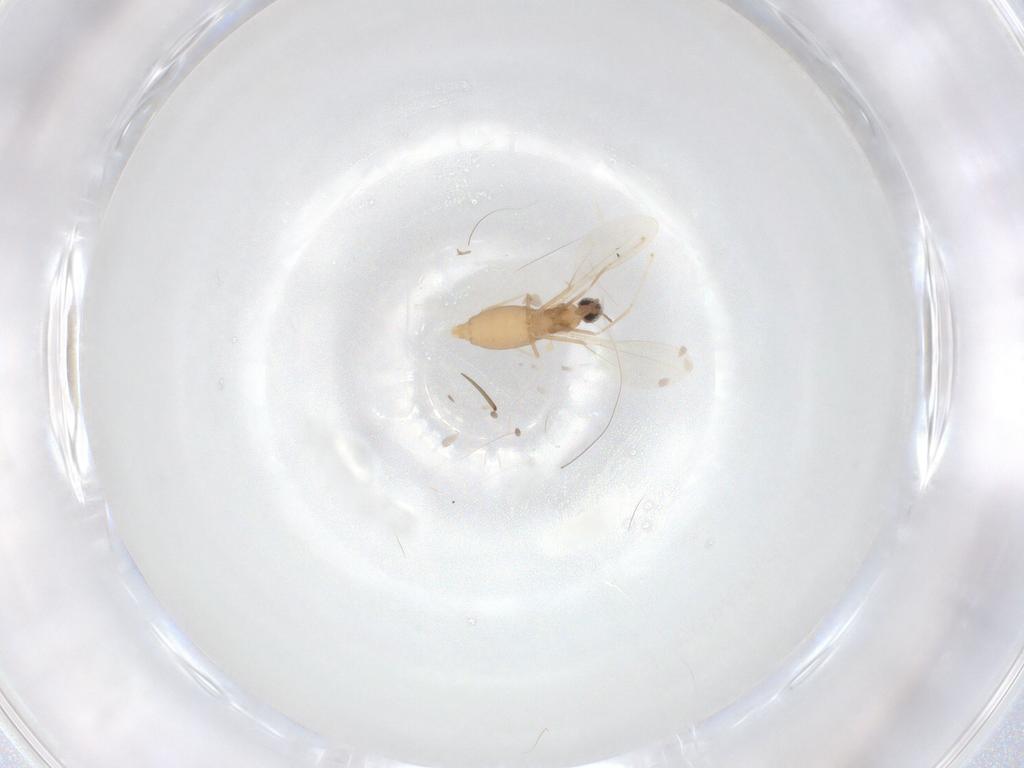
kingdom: Animalia
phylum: Arthropoda
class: Insecta
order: Diptera
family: Cecidomyiidae
